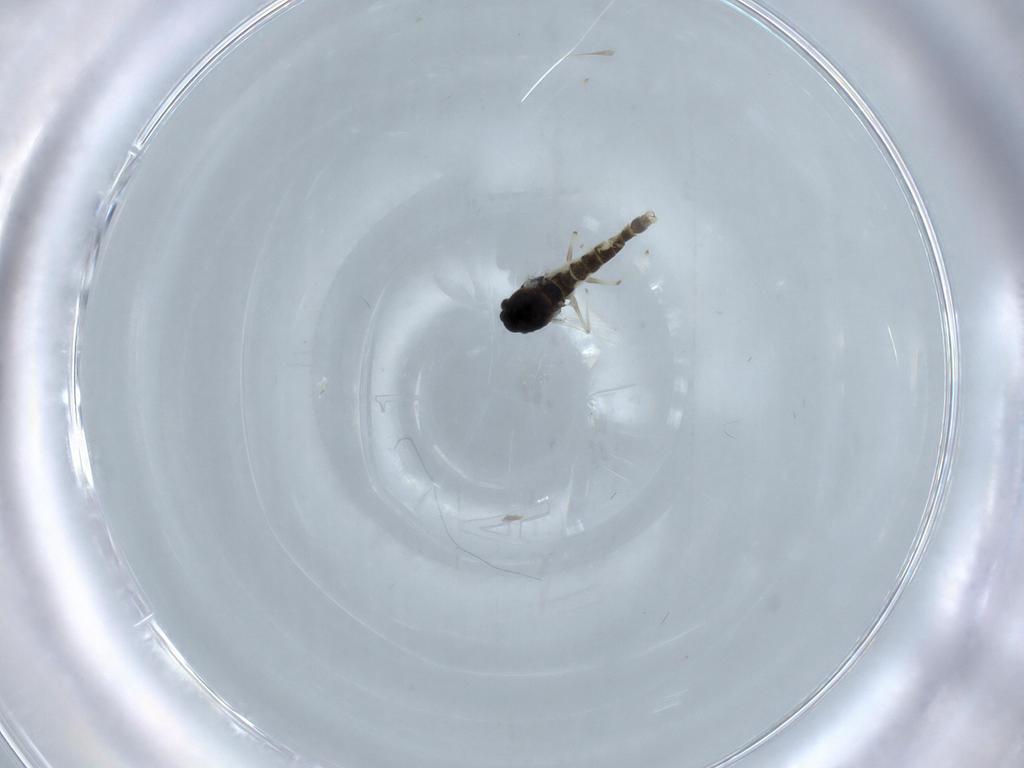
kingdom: Animalia
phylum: Arthropoda
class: Insecta
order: Diptera
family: Chironomidae
